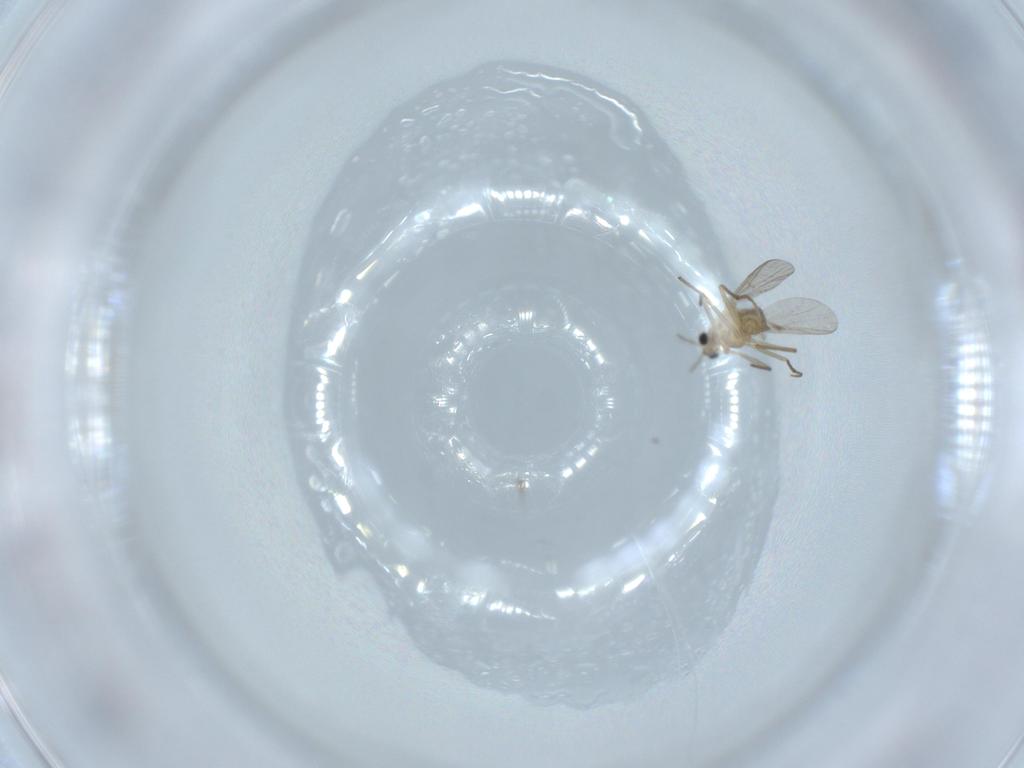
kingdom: Animalia
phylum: Arthropoda
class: Insecta
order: Diptera
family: Chironomidae
